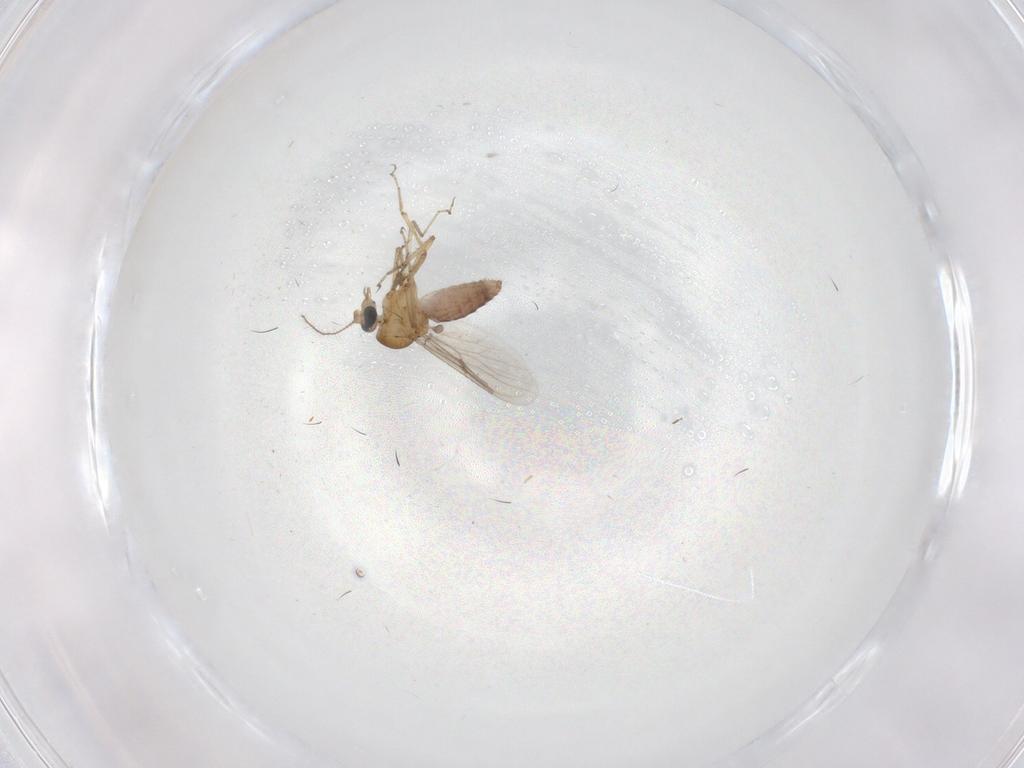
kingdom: Animalia
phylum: Arthropoda
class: Insecta
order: Diptera
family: Ceratopogonidae
